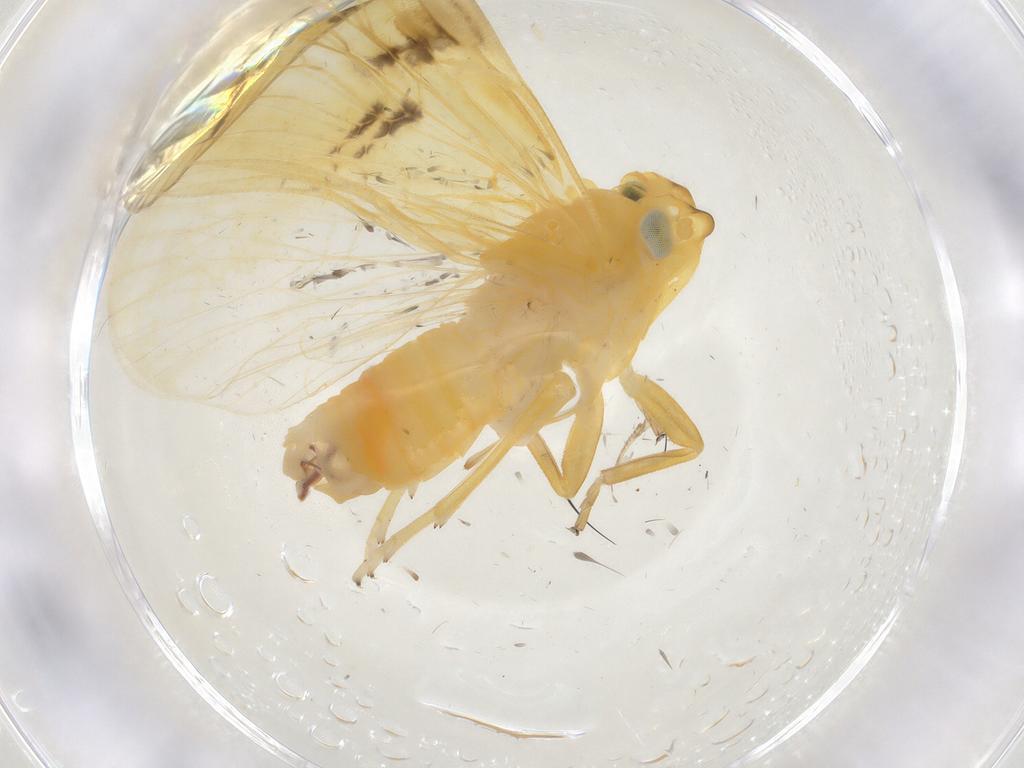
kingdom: Animalia
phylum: Arthropoda
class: Insecta
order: Hemiptera
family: Cixiidae
